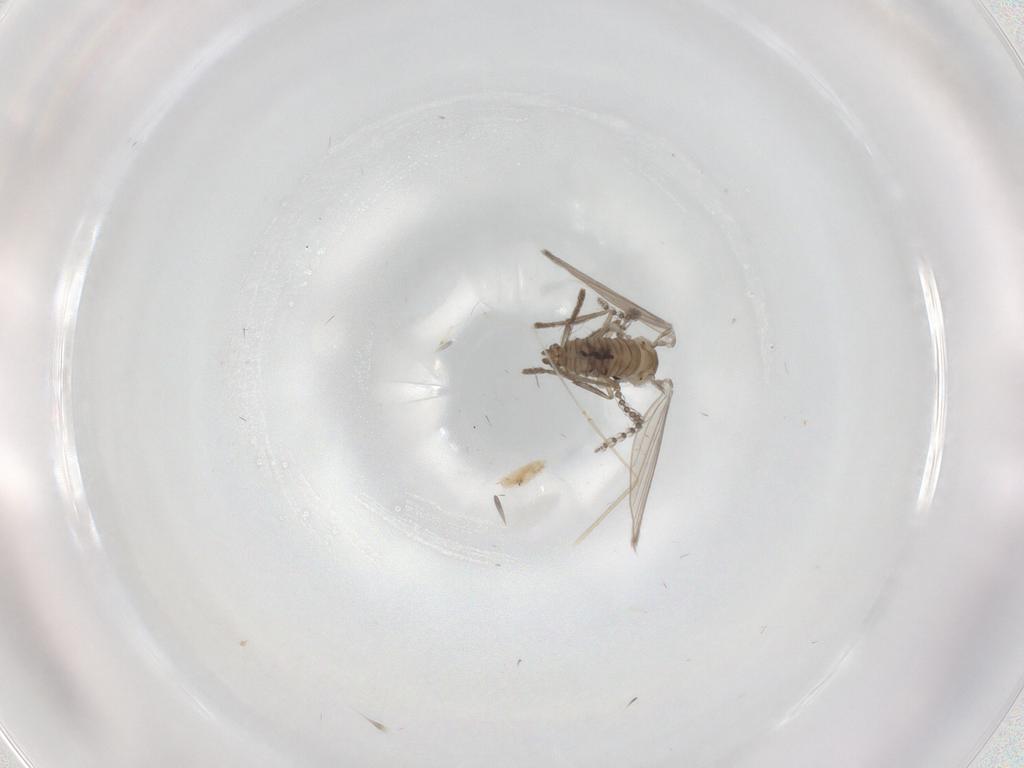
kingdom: Animalia
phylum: Arthropoda
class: Insecta
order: Diptera
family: Psychodidae
